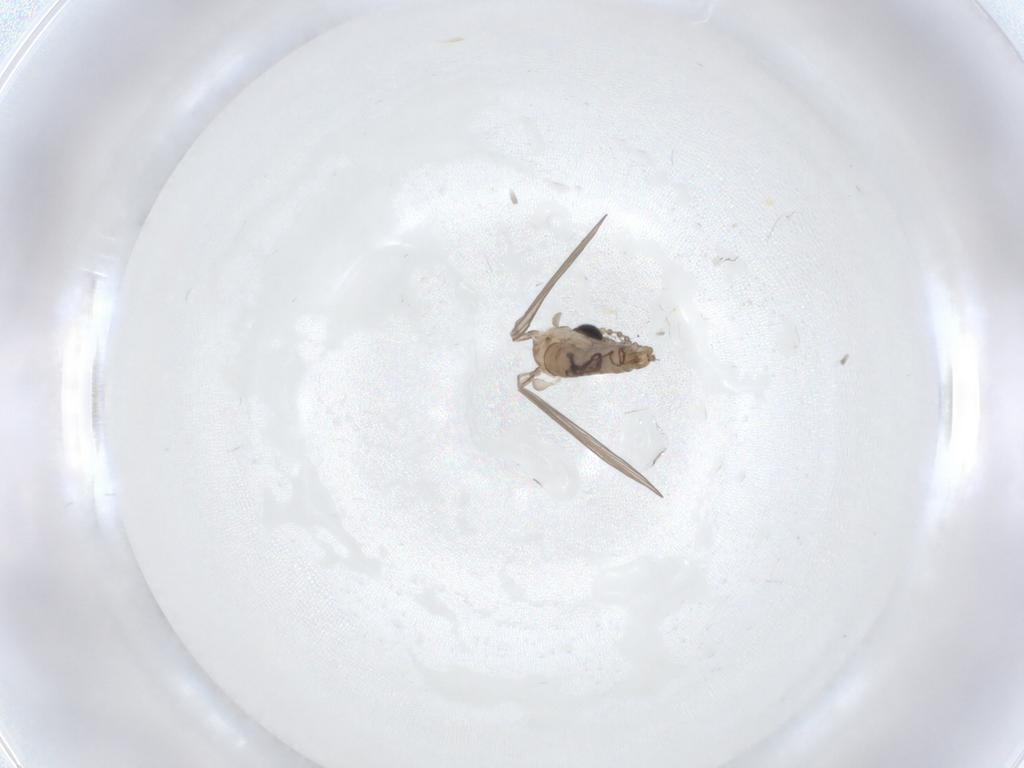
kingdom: Animalia
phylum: Arthropoda
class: Insecta
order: Diptera
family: Psychodidae
